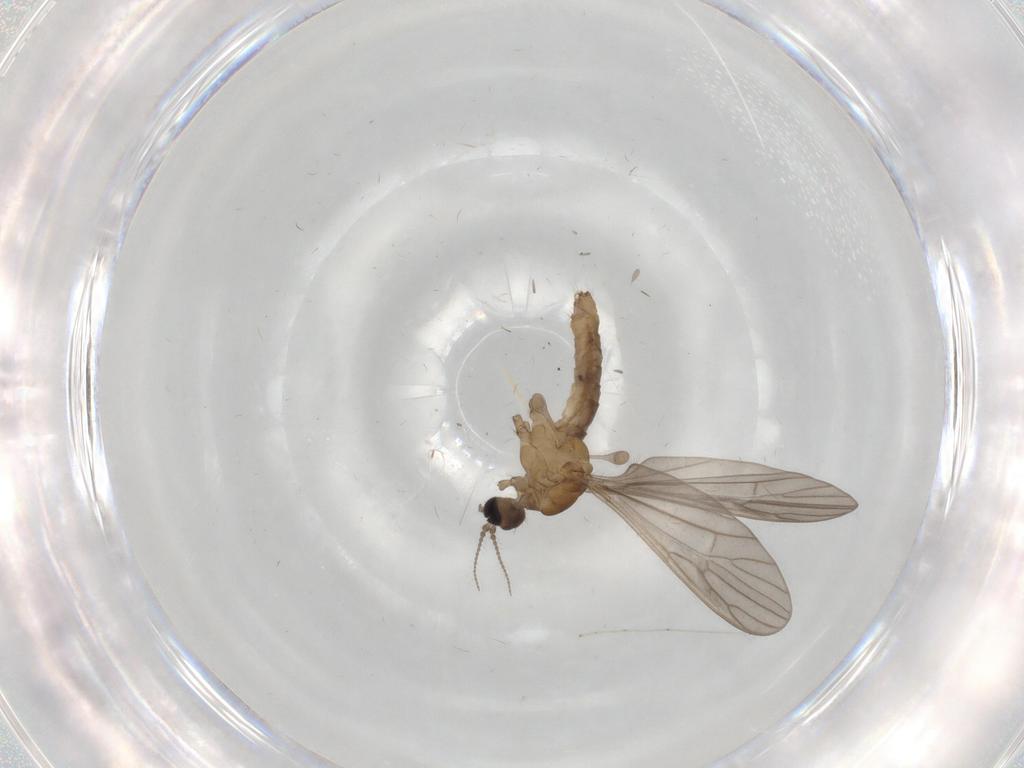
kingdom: Animalia
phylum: Arthropoda
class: Insecta
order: Diptera
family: Limoniidae
